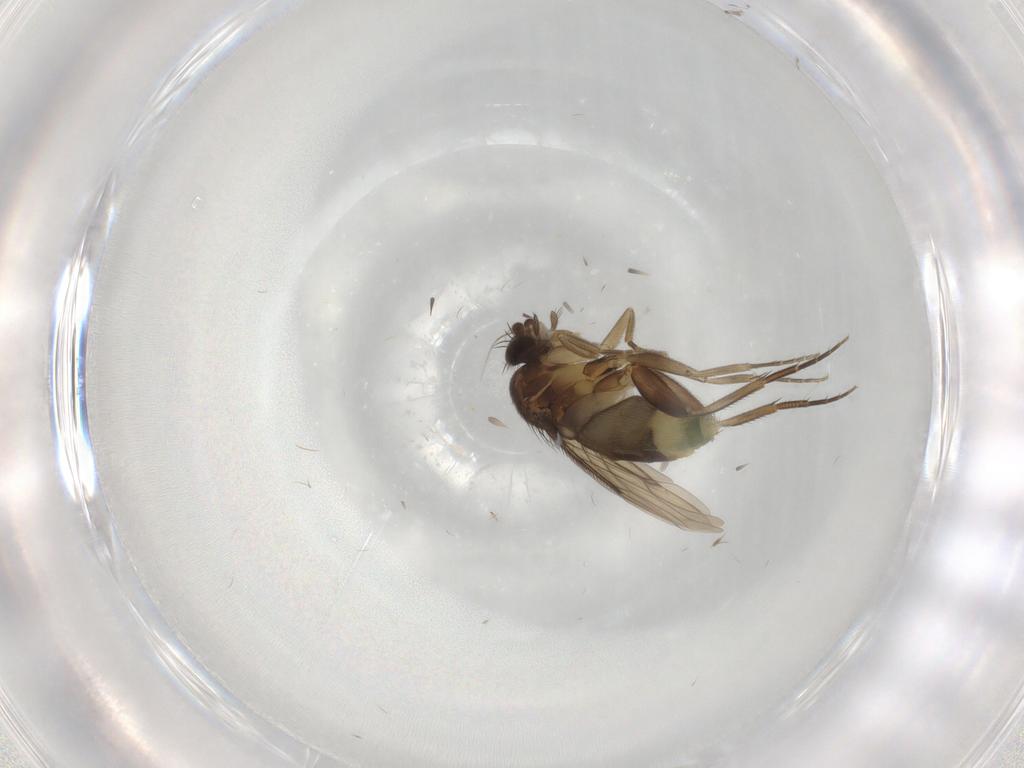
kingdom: Animalia
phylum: Arthropoda
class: Insecta
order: Diptera
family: Phoridae
